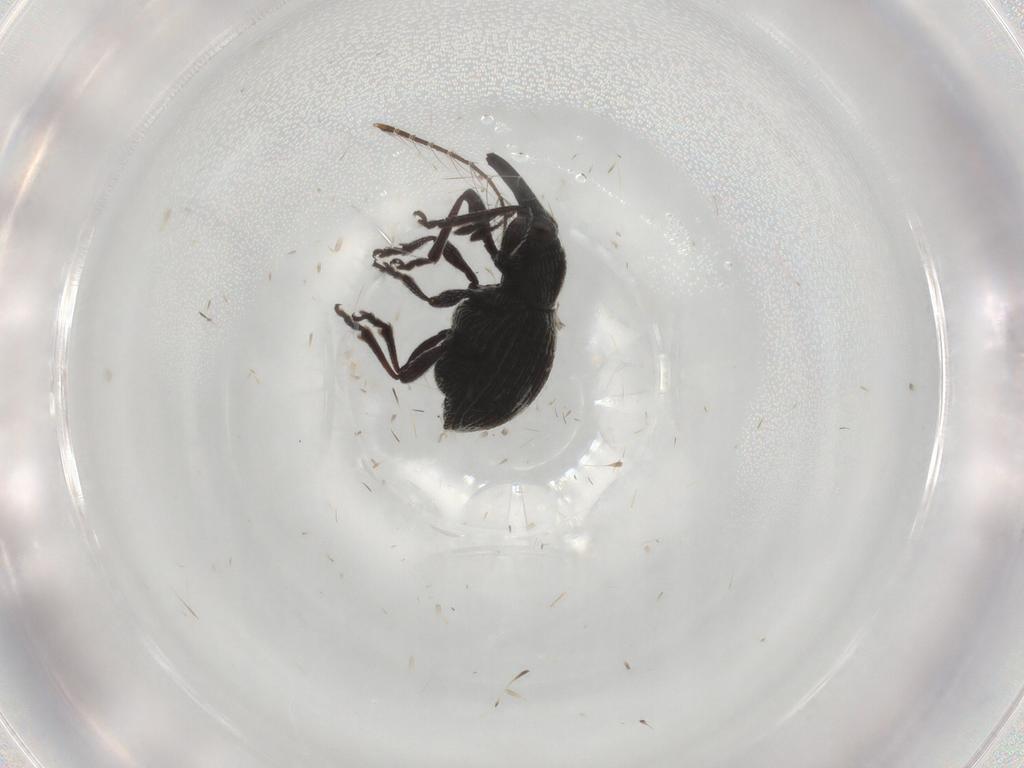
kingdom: Animalia
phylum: Arthropoda
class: Insecta
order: Coleoptera
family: Brentidae
